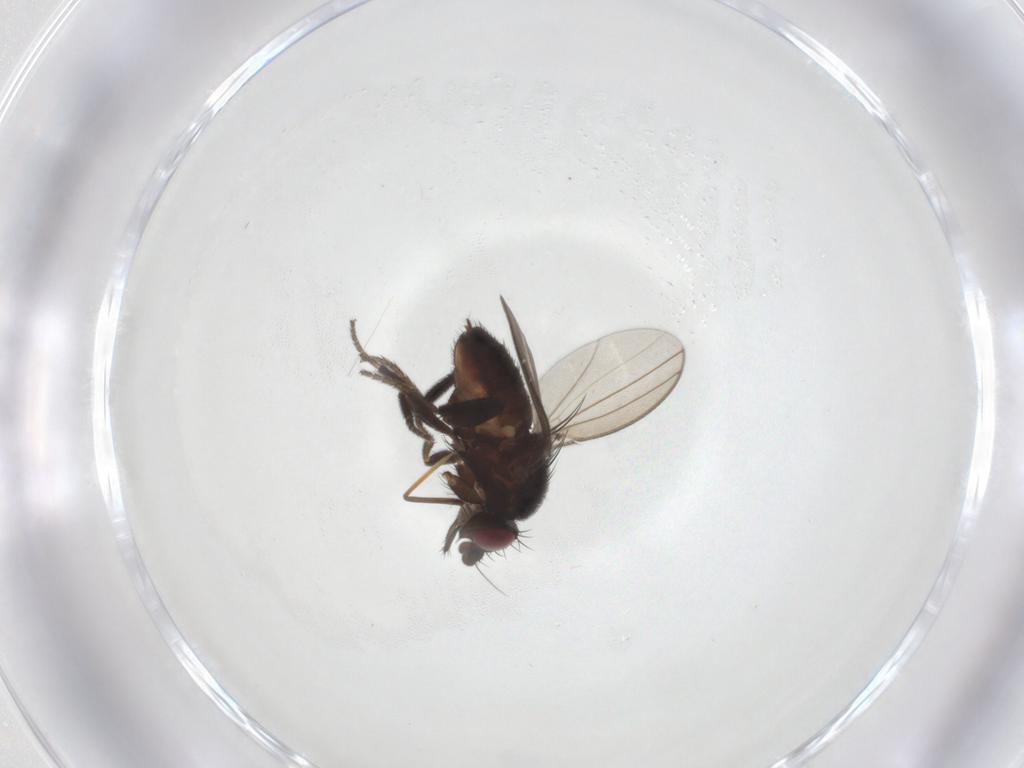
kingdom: Animalia
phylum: Arthropoda
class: Insecta
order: Diptera
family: Milichiidae
